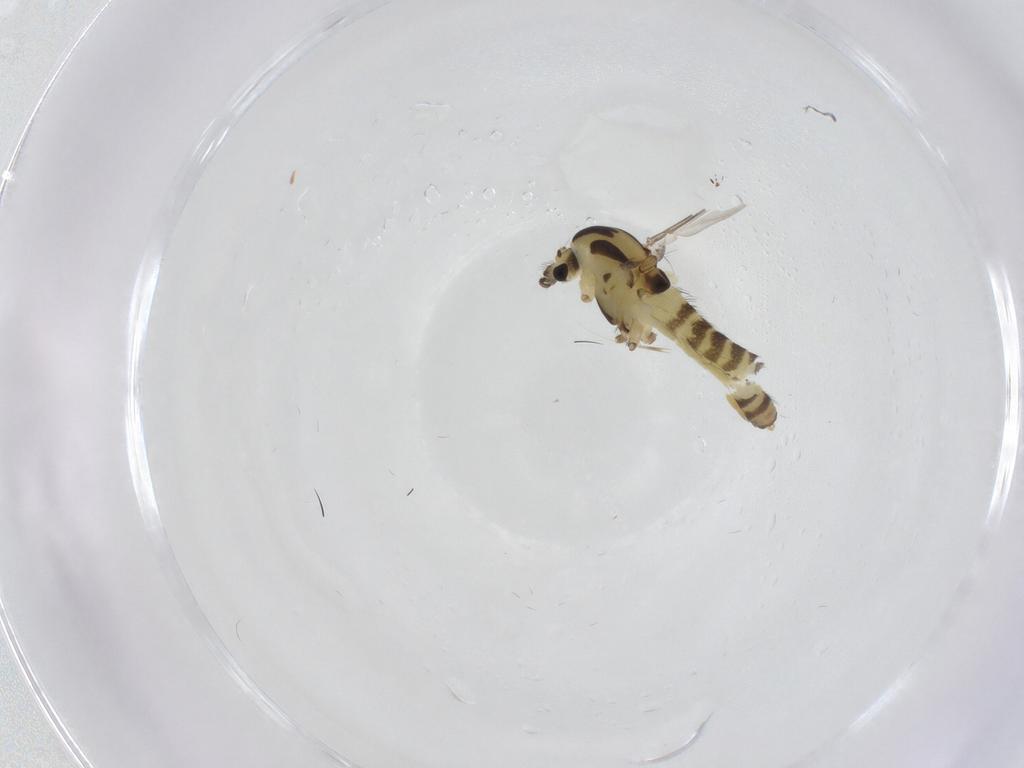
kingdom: Animalia
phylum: Arthropoda
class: Insecta
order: Diptera
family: Chironomidae
